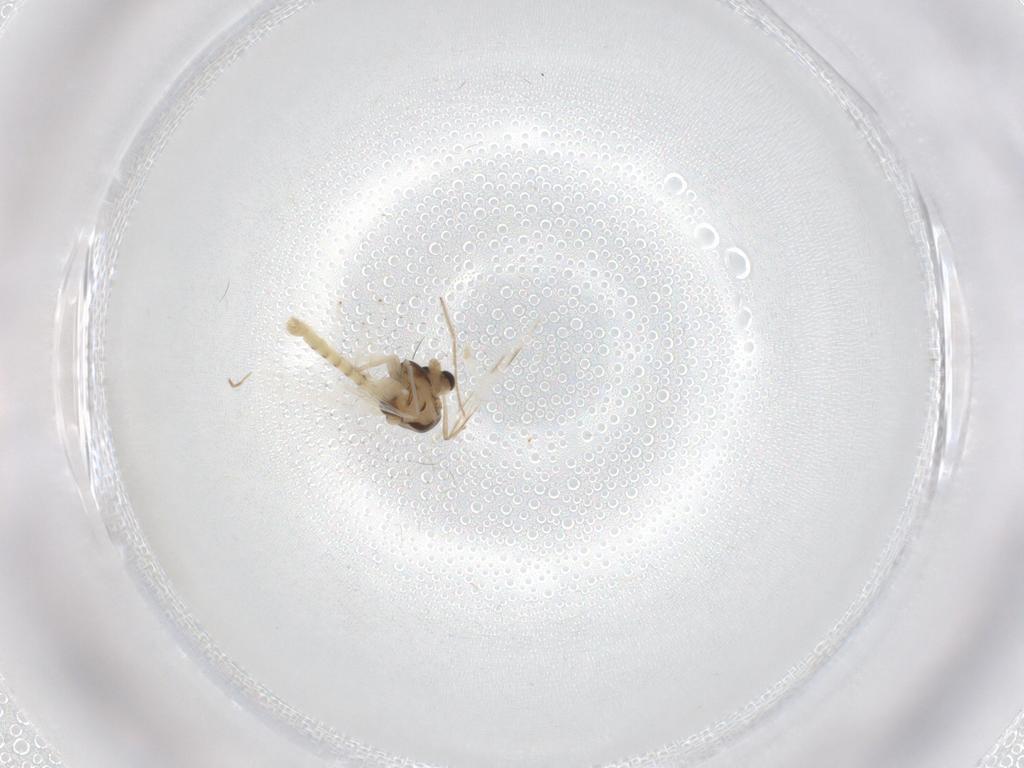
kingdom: Animalia
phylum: Arthropoda
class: Insecta
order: Diptera
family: Chironomidae
